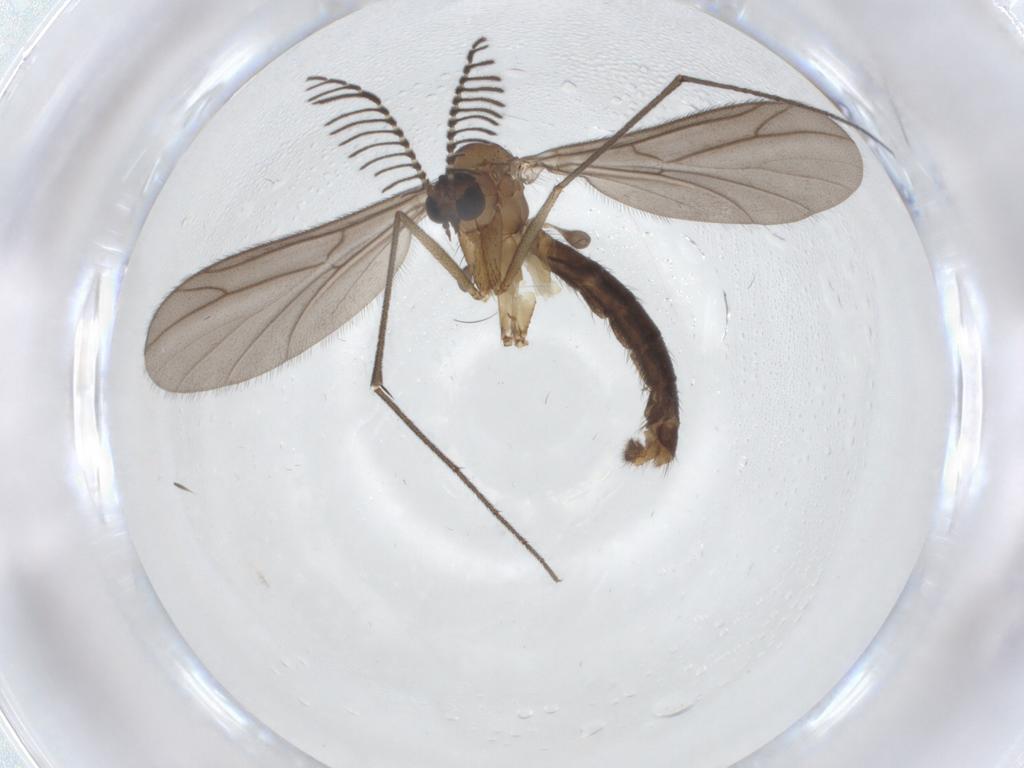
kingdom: Animalia
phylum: Arthropoda
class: Insecta
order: Diptera
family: Ditomyiidae
